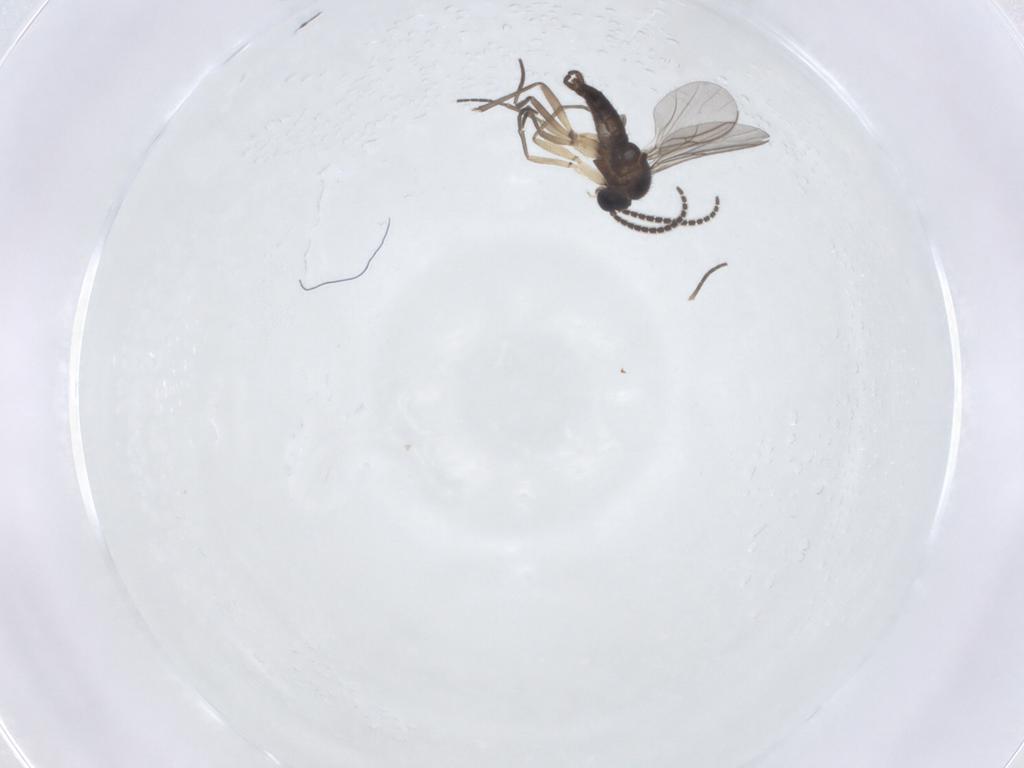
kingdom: Animalia
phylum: Arthropoda
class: Insecta
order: Diptera
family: Sciaridae
